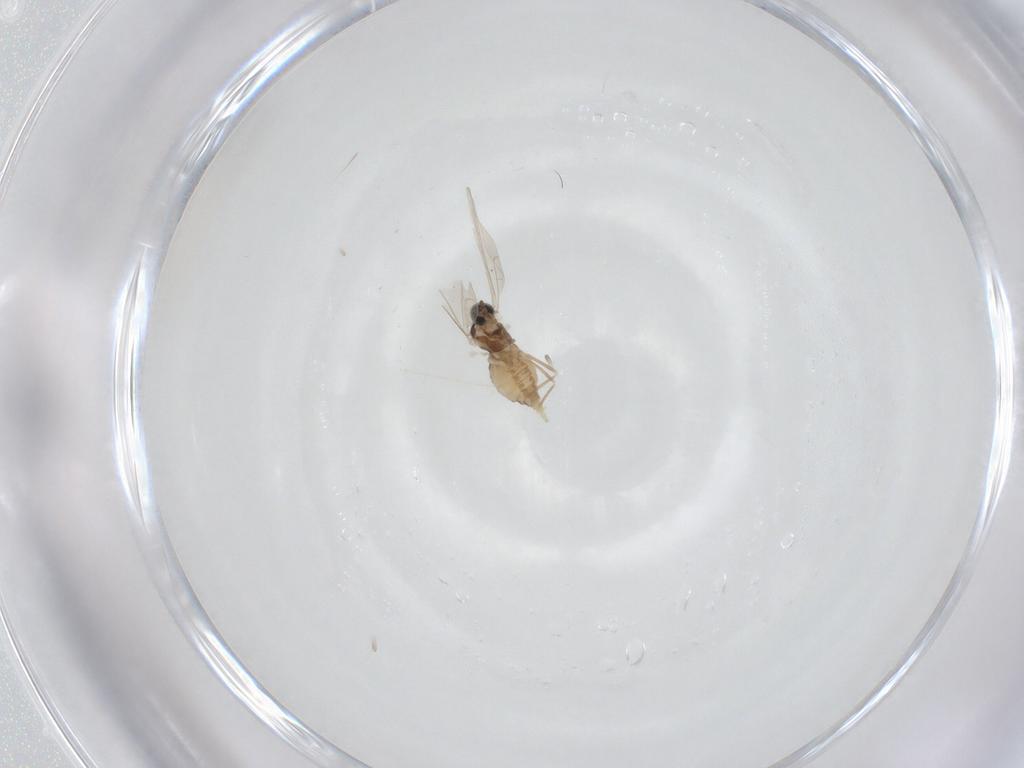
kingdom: Animalia
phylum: Arthropoda
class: Insecta
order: Diptera
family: Cecidomyiidae
